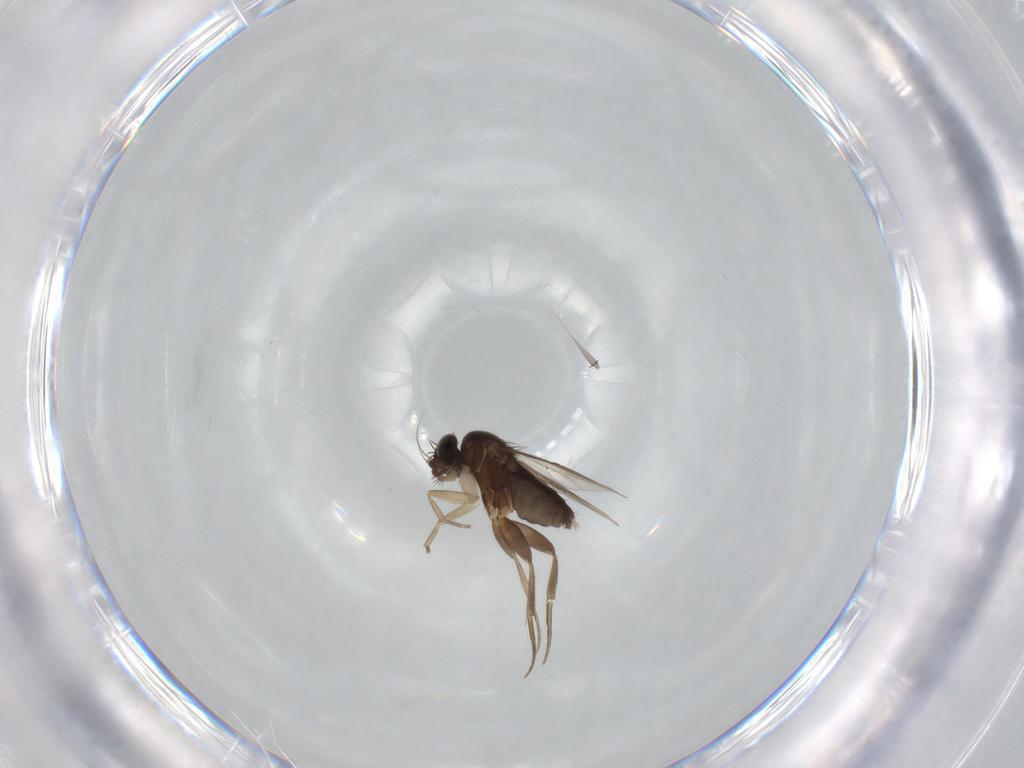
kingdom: Animalia
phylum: Arthropoda
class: Insecta
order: Diptera
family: Phoridae
